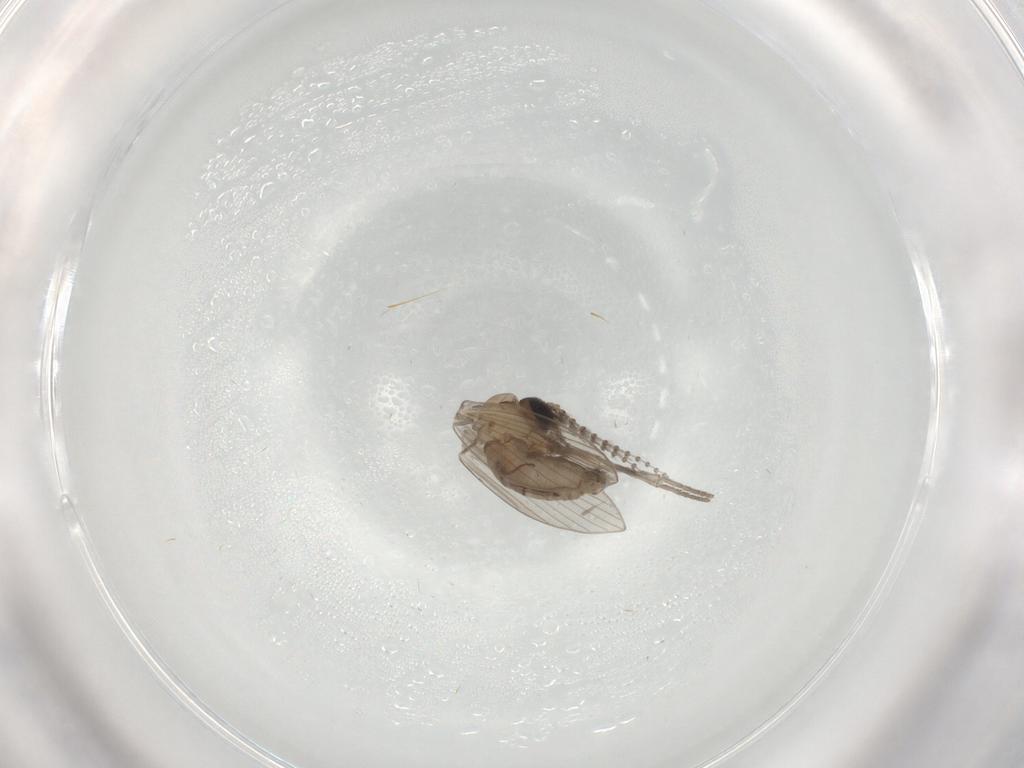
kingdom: Animalia
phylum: Arthropoda
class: Insecta
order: Diptera
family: Psychodidae
